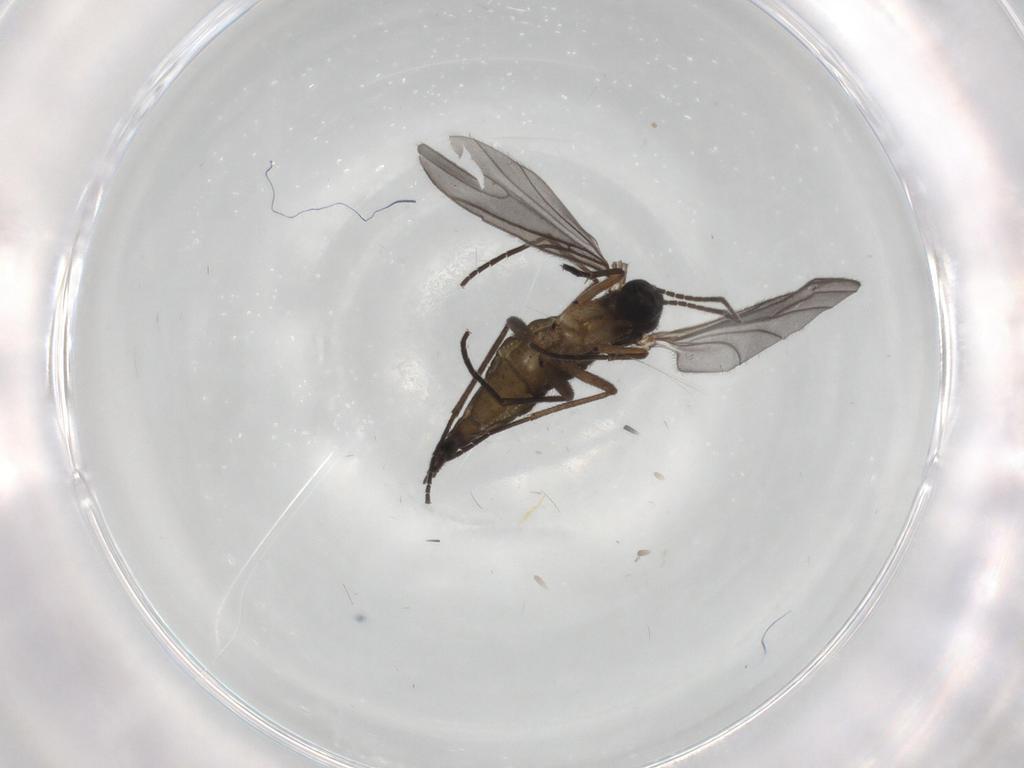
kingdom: Animalia
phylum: Arthropoda
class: Insecta
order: Diptera
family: Sciaridae
